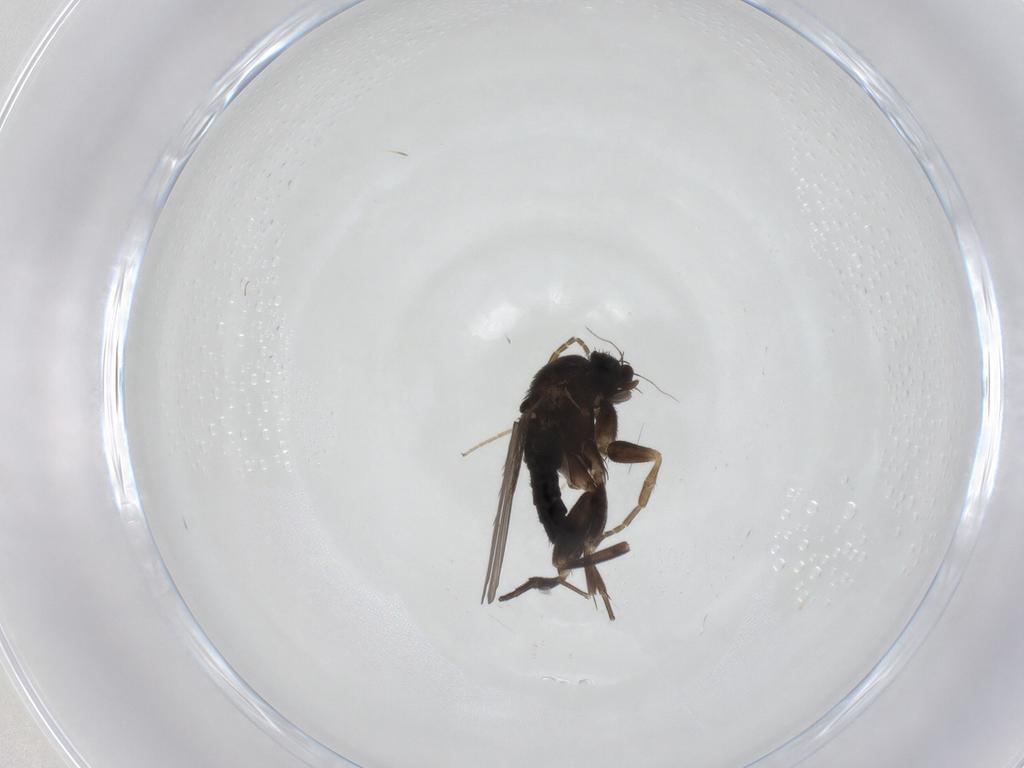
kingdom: Animalia
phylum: Arthropoda
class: Insecta
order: Diptera
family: Phoridae
